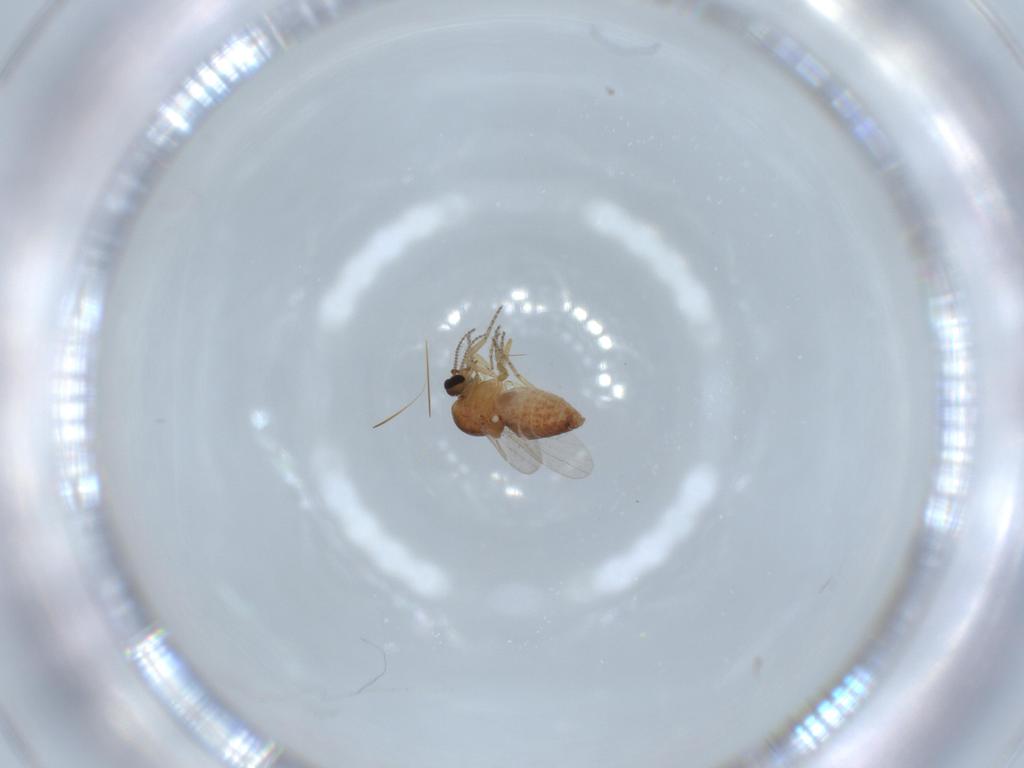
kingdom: Animalia
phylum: Arthropoda
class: Insecta
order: Diptera
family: Ceratopogonidae
